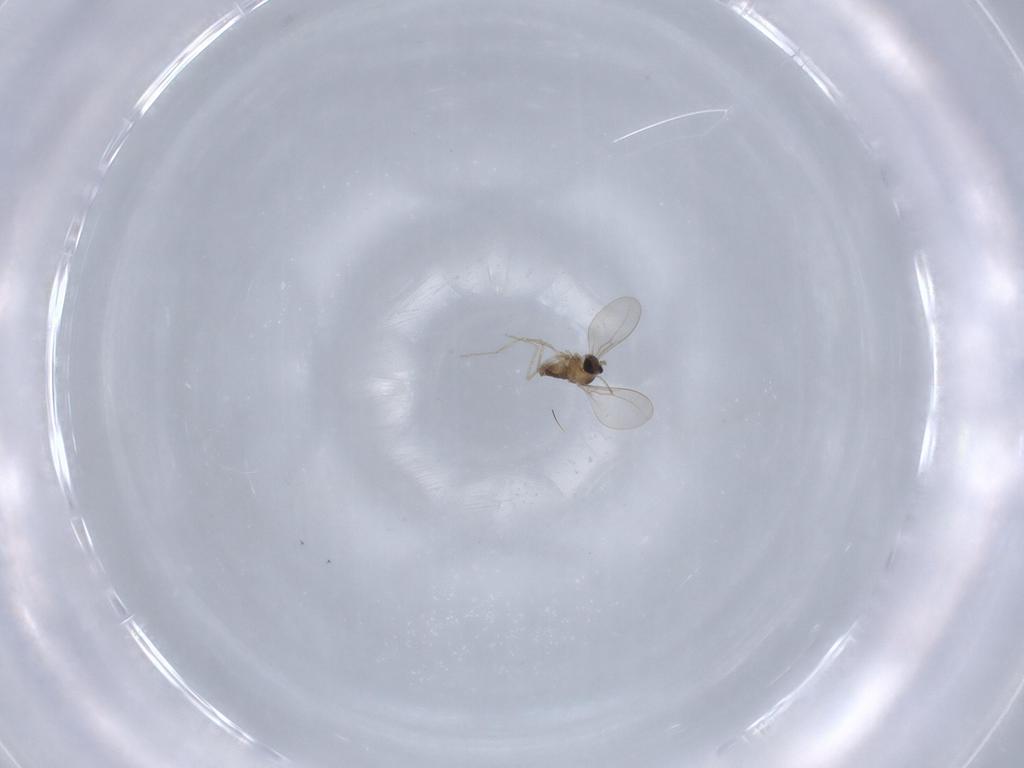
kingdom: Animalia
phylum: Arthropoda
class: Insecta
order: Diptera
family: Cecidomyiidae
